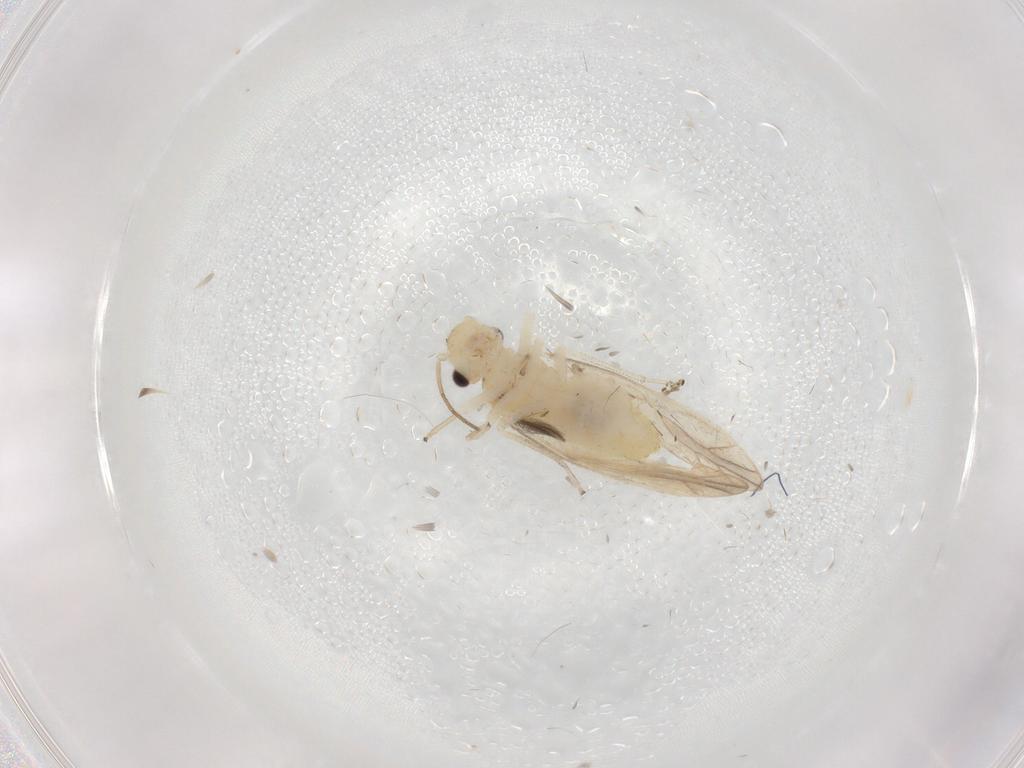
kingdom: Animalia
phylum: Arthropoda
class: Insecta
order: Psocodea
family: Caeciliusidae
